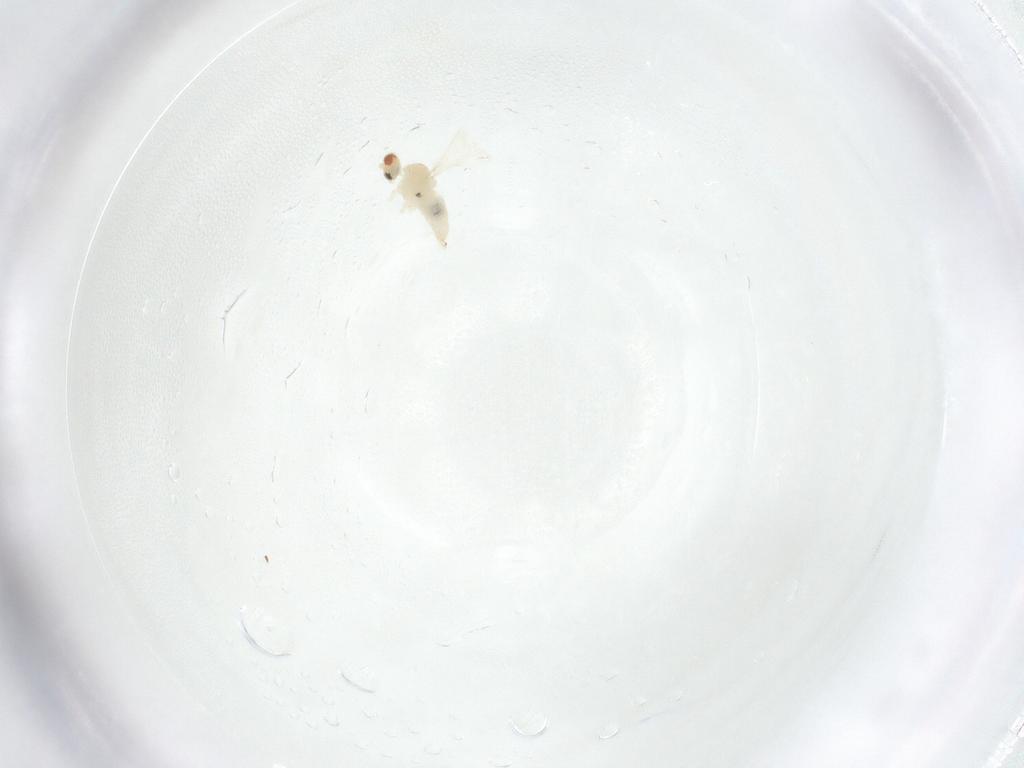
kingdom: Animalia
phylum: Arthropoda
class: Insecta
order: Diptera
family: Cecidomyiidae
